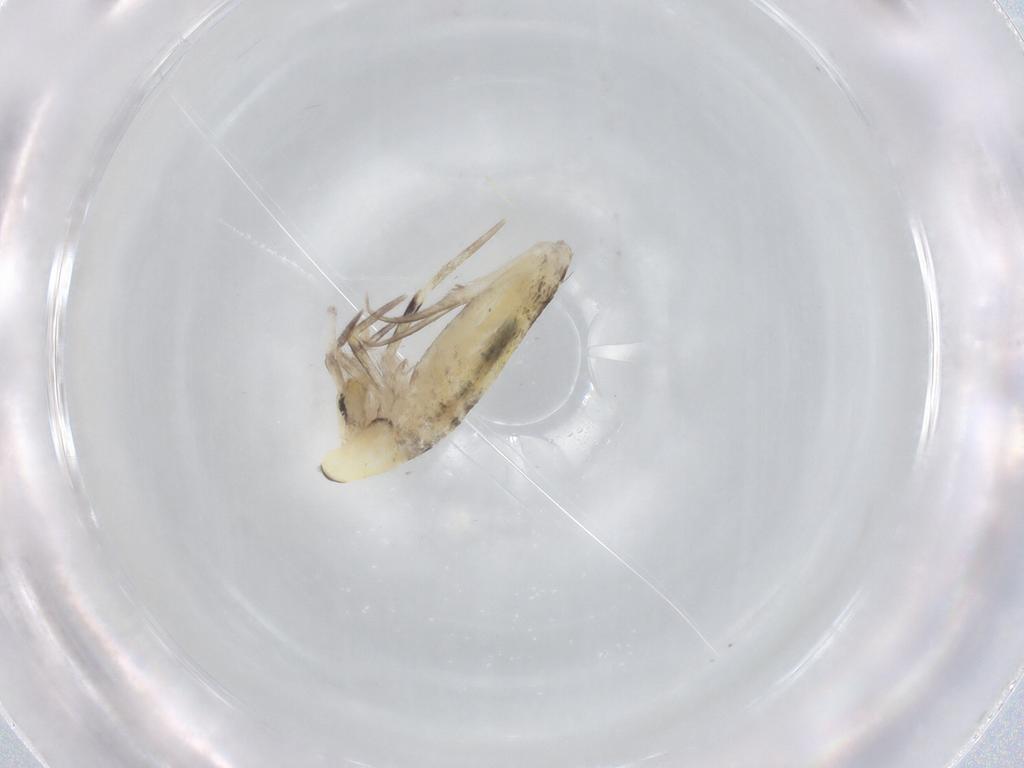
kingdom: Animalia
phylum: Arthropoda
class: Collembola
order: Entomobryomorpha
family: Entomobryidae
